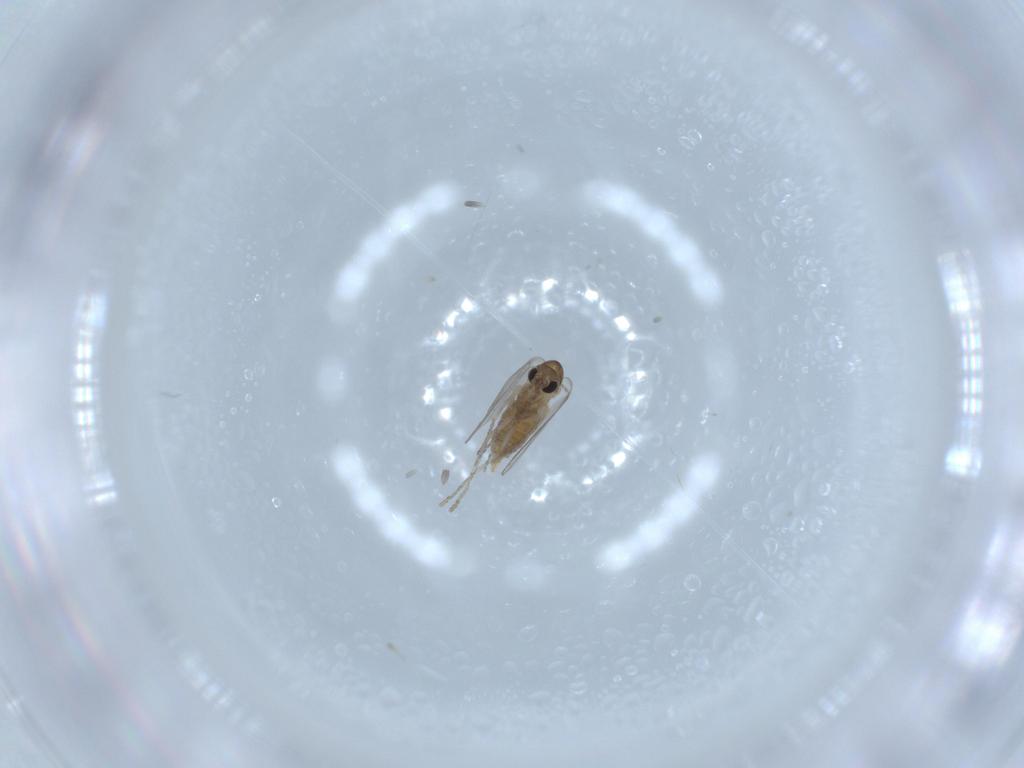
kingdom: Animalia
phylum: Arthropoda
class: Insecta
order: Diptera
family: Psychodidae
